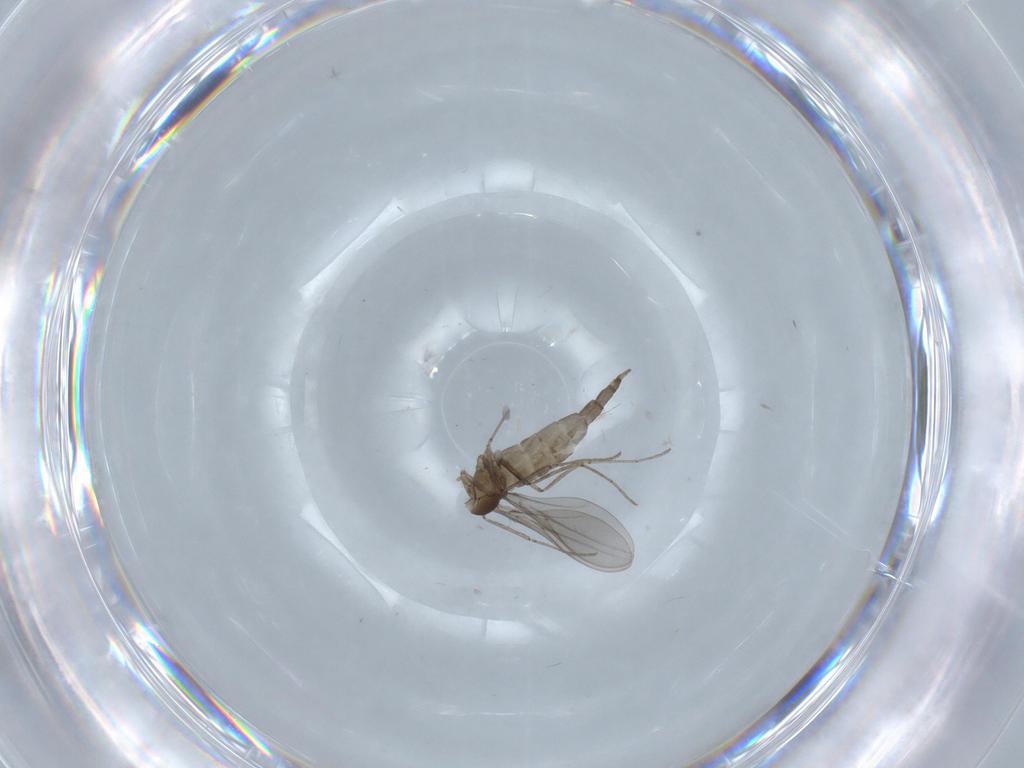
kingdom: Animalia
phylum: Arthropoda
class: Insecta
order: Diptera
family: Cecidomyiidae
